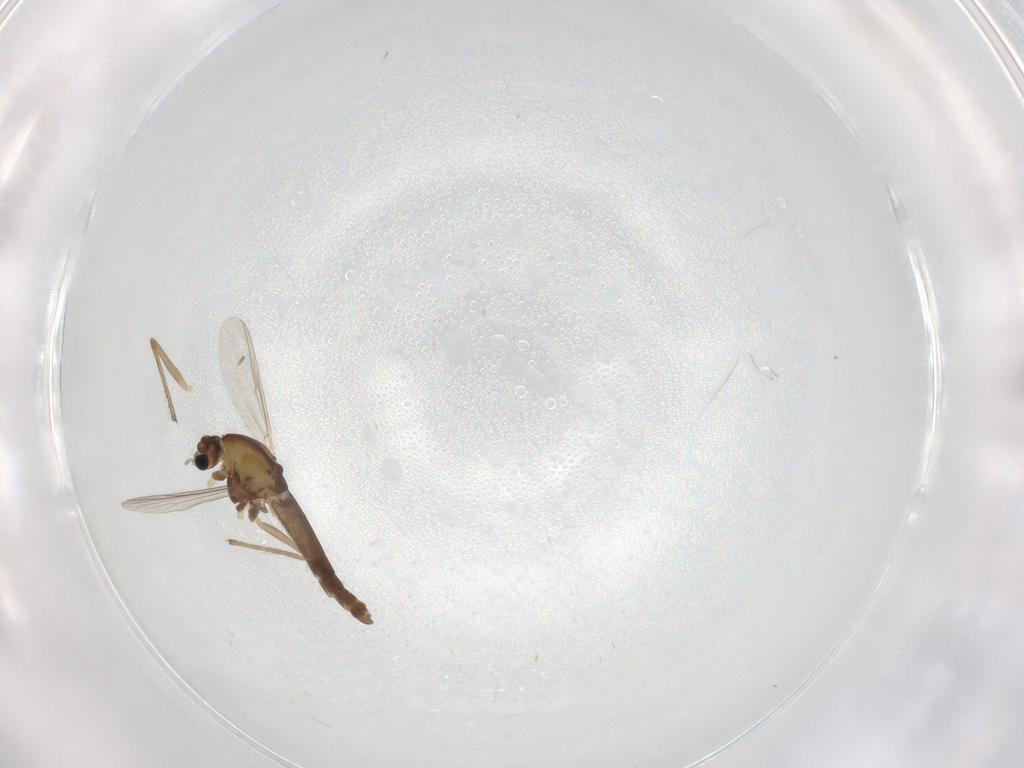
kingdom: Animalia
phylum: Arthropoda
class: Insecta
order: Diptera
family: Chironomidae
